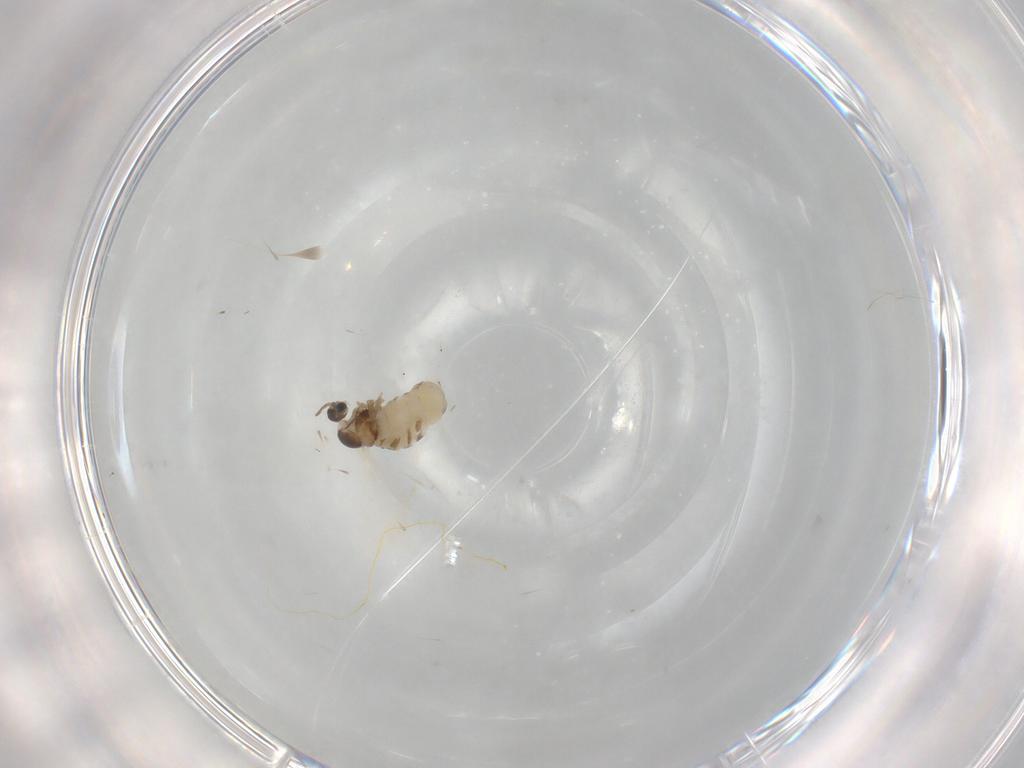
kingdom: Animalia
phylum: Arthropoda
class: Insecta
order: Diptera
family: Cecidomyiidae
